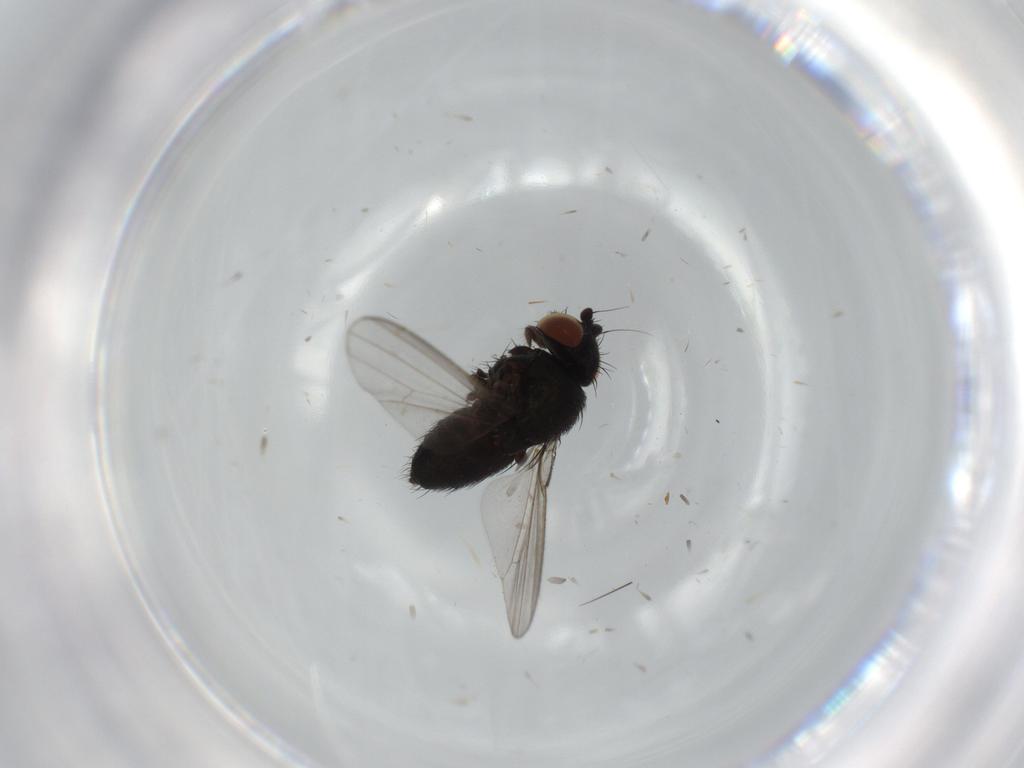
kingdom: Animalia
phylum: Arthropoda
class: Insecta
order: Diptera
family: Milichiidae
